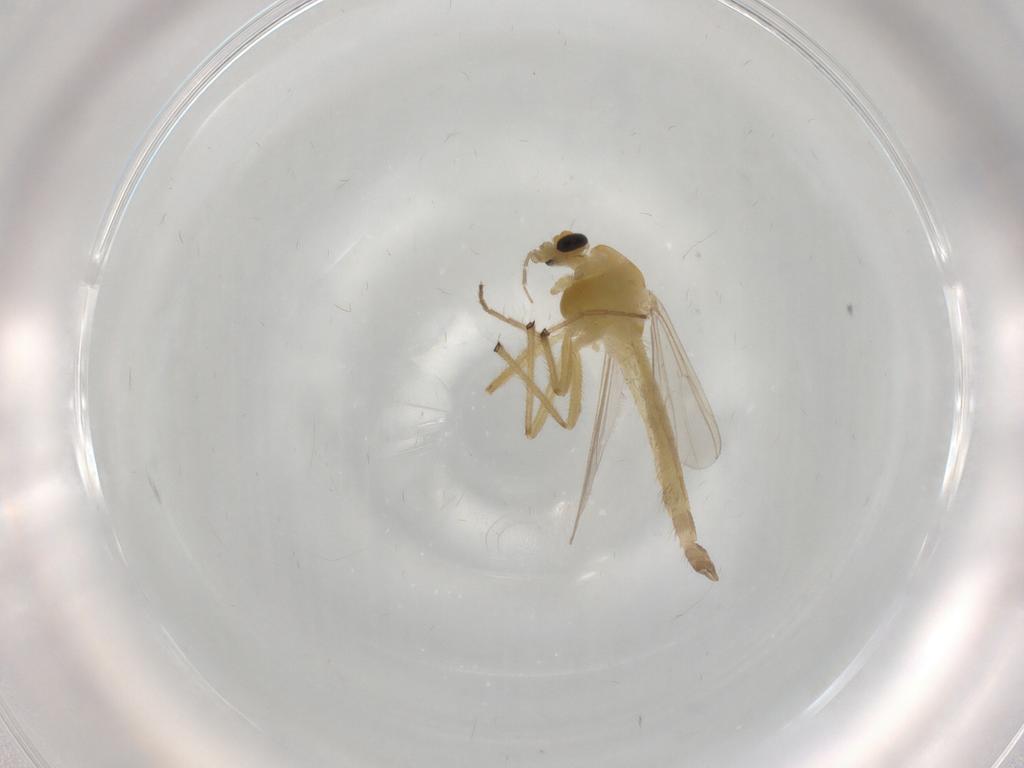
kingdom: Animalia
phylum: Arthropoda
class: Insecta
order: Diptera
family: Chironomidae
